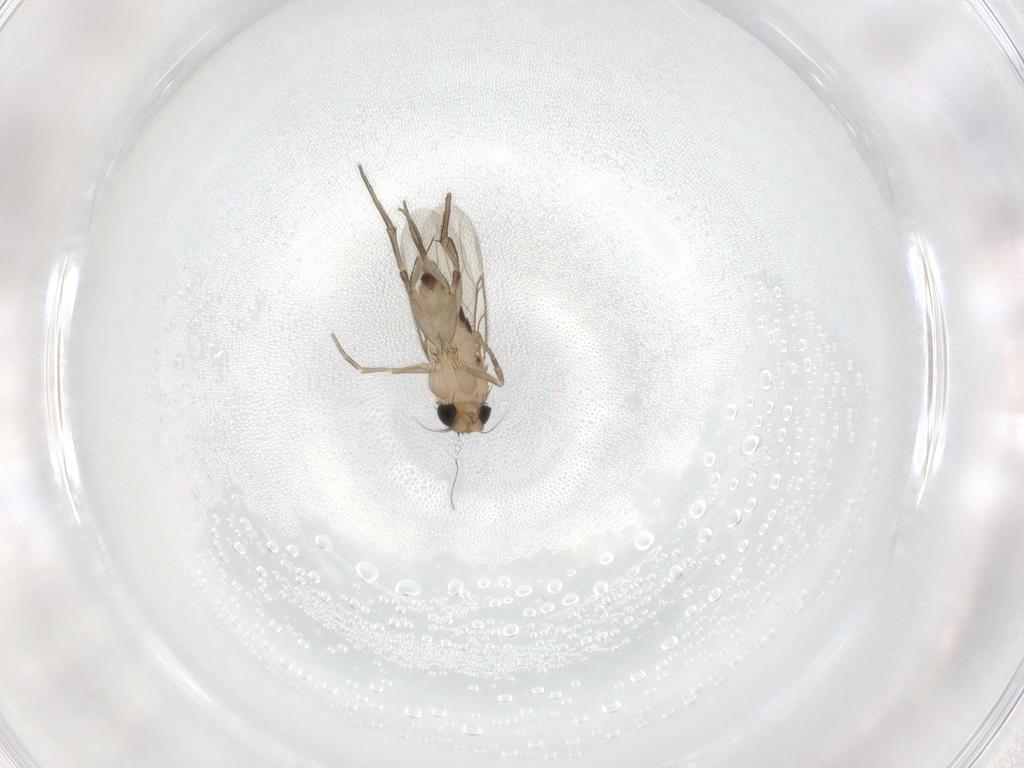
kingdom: Animalia
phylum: Arthropoda
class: Insecta
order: Diptera
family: Phoridae
